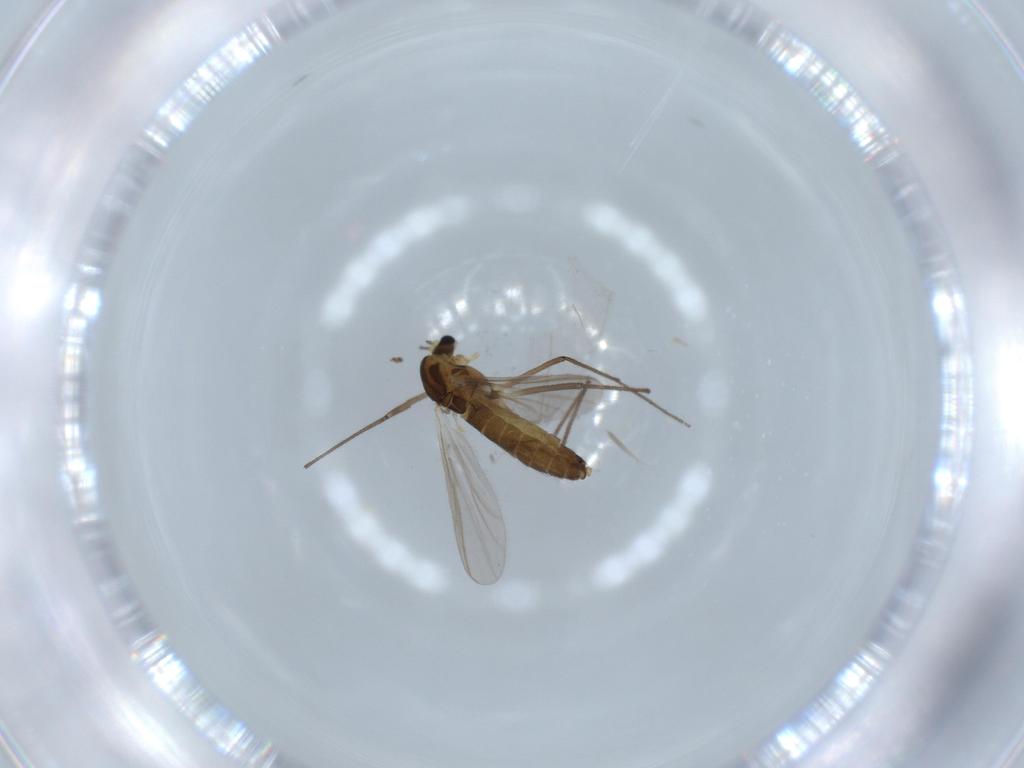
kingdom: Animalia
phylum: Arthropoda
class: Insecta
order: Diptera
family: Chironomidae
